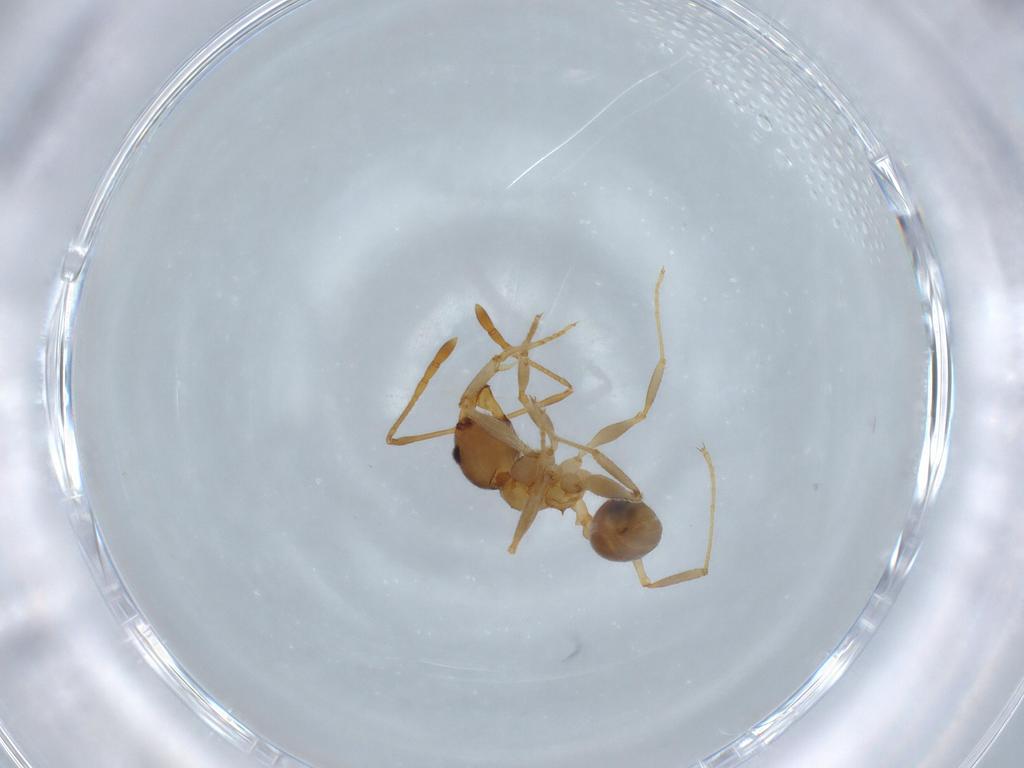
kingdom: Animalia
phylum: Arthropoda
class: Insecta
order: Hymenoptera
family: Formicidae
